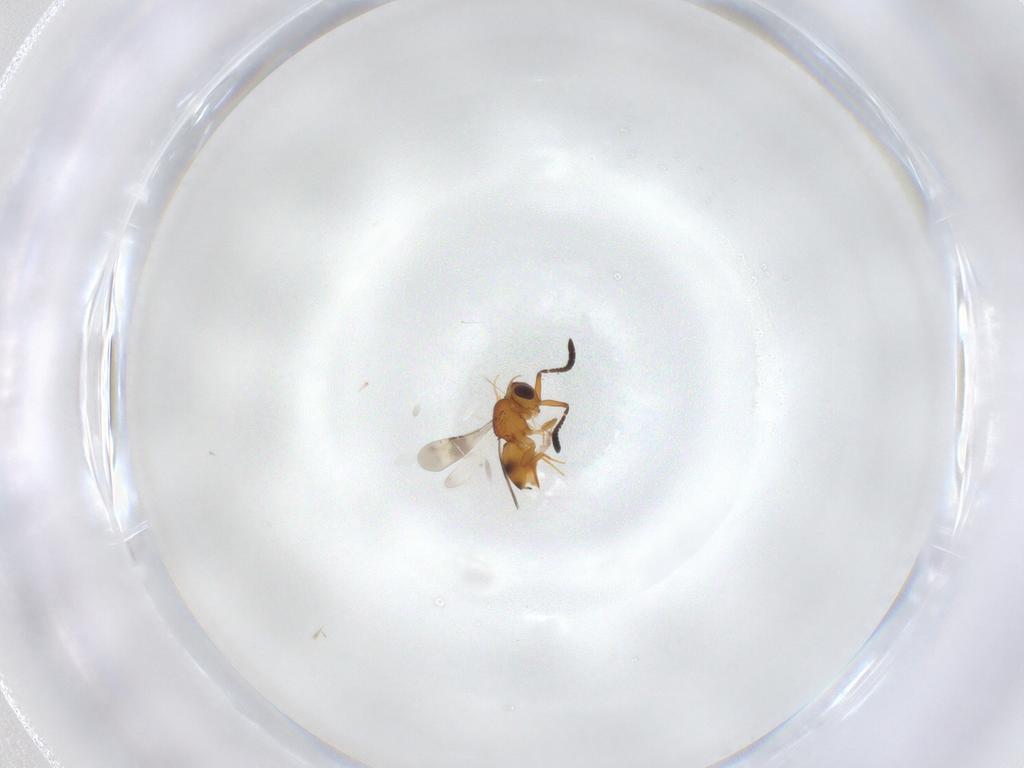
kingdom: Animalia
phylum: Arthropoda
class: Insecta
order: Hymenoptera
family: Ceraphronidae
